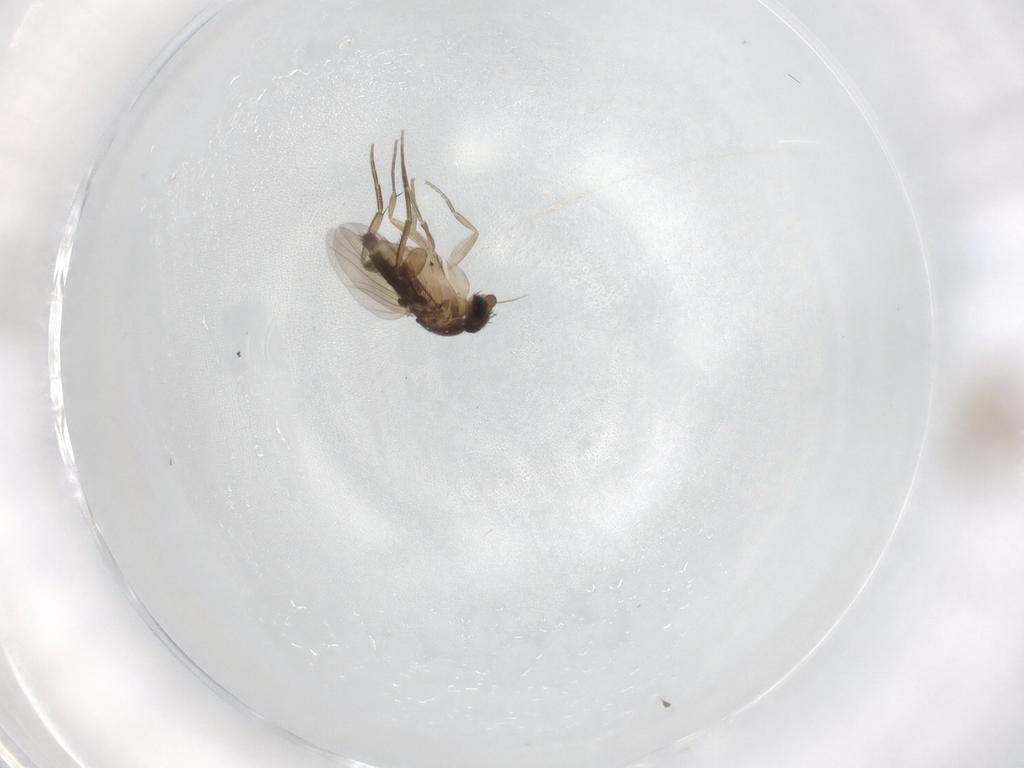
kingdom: Animalia
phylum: Arthropoda
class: Insecta
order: Diptera
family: Phoridae
